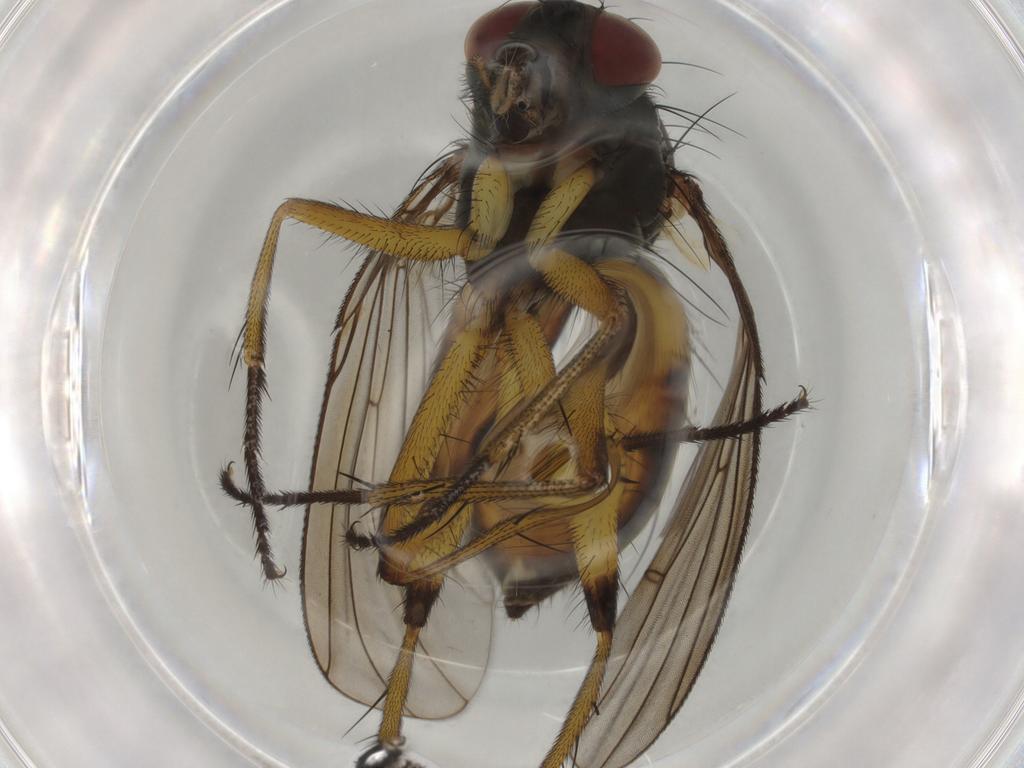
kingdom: Animalia
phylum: Arthropoda
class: Insecta
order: Diptera
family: Muscidae
